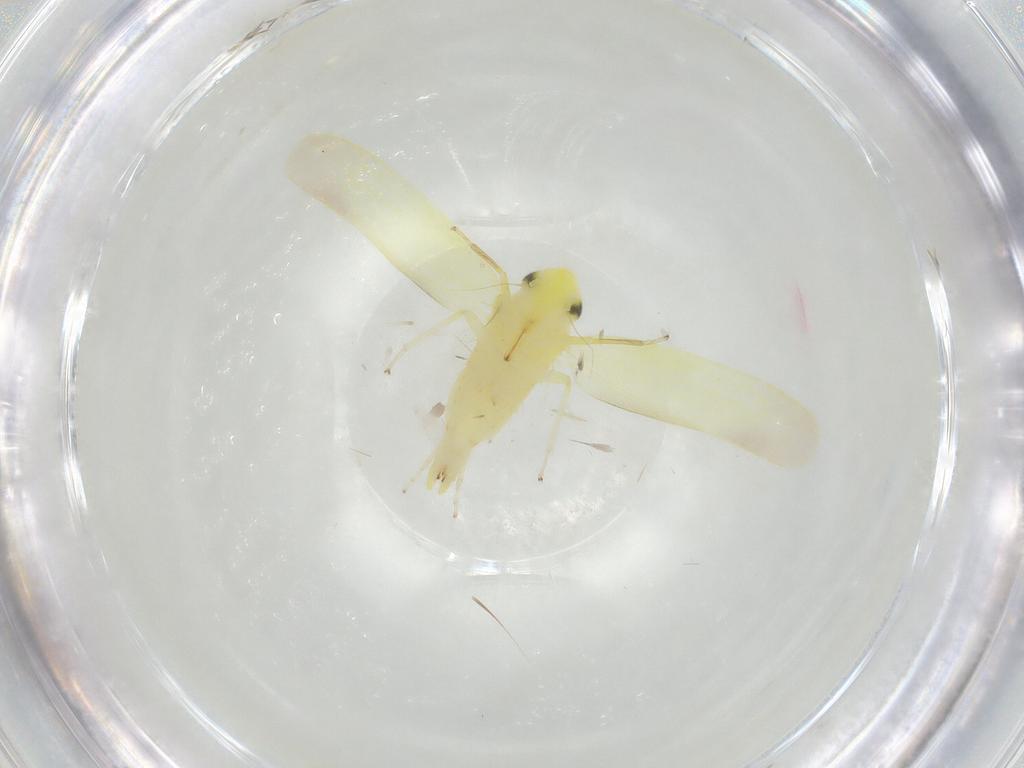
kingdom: Animalia
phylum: Arthropoda
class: Insecta
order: Hemiptera
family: Cicadellidae
